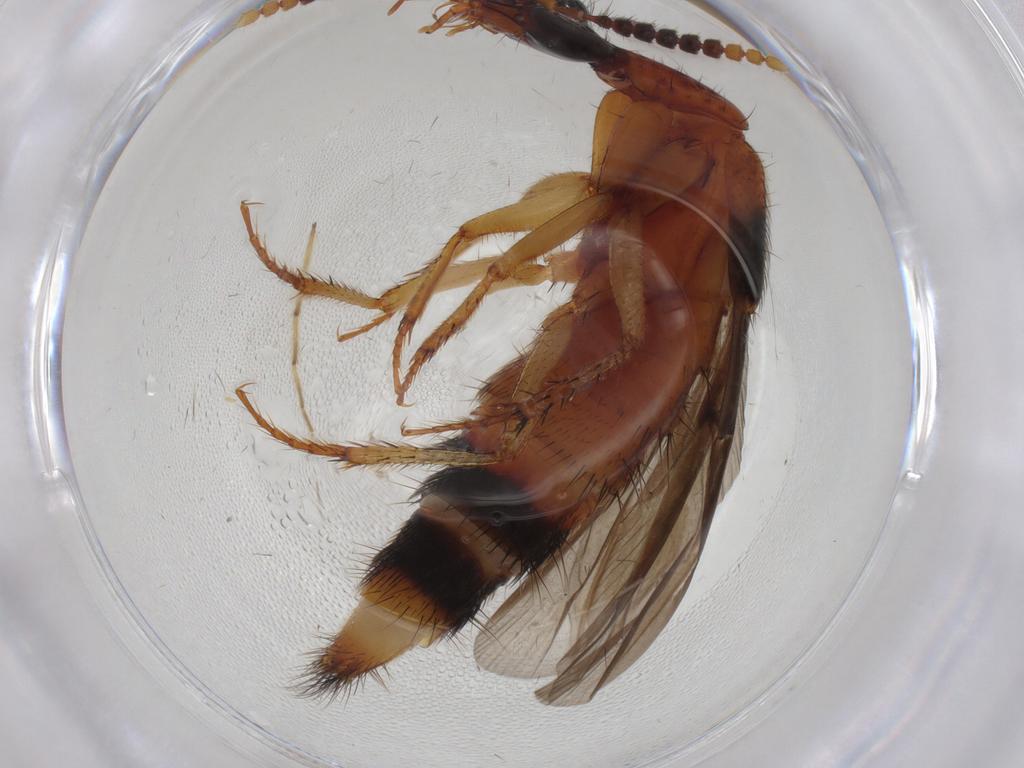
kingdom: Animalia
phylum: Arthropoda
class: Insecta
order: Coleoptera
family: Staphylinidae
